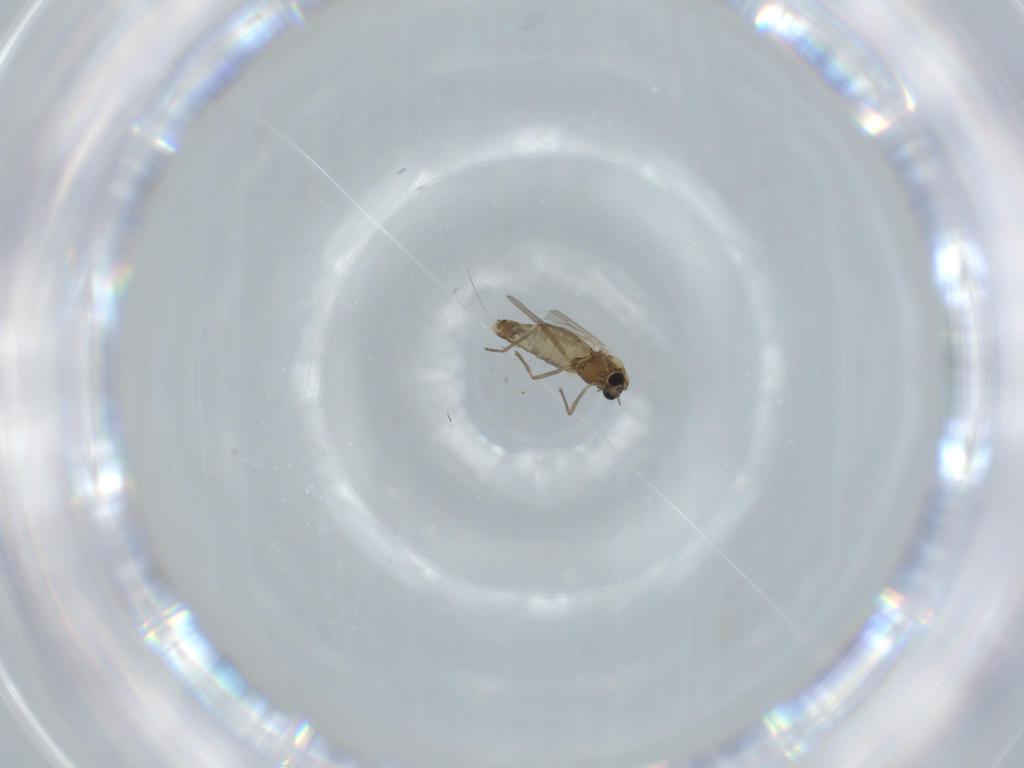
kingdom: Animalia
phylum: Arthropoda
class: Insecta
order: Diptera
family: Chironomidae
